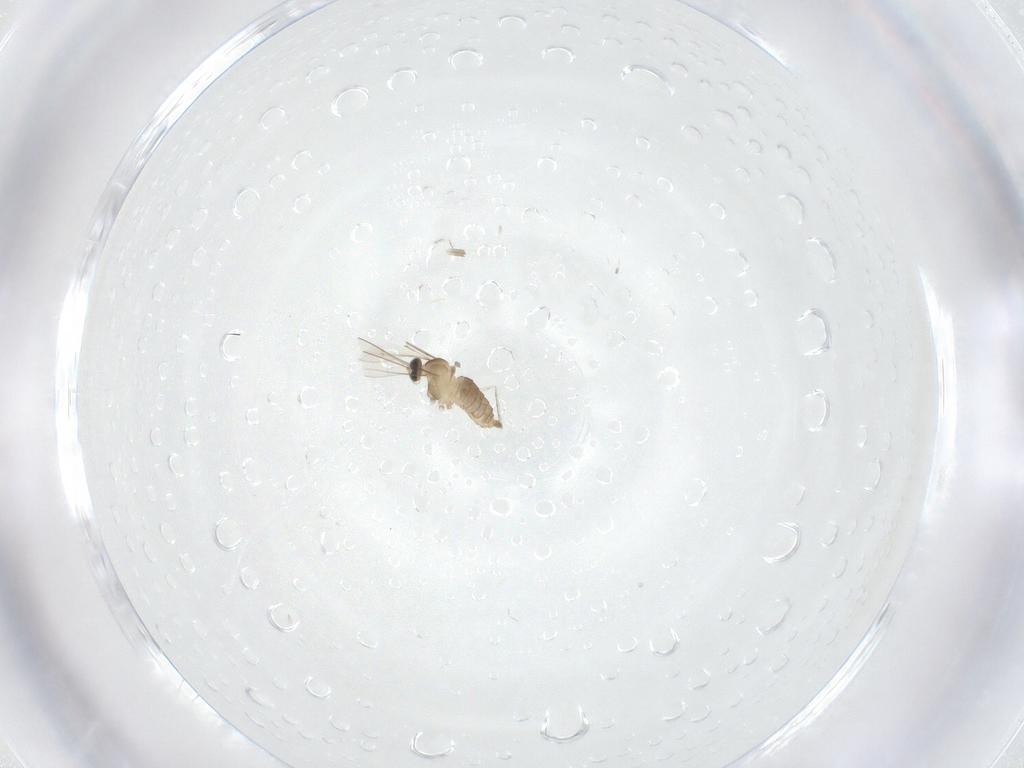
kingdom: Animalia
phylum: Arthropoda
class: Insecta
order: Diptera
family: Cecidomyiidae
